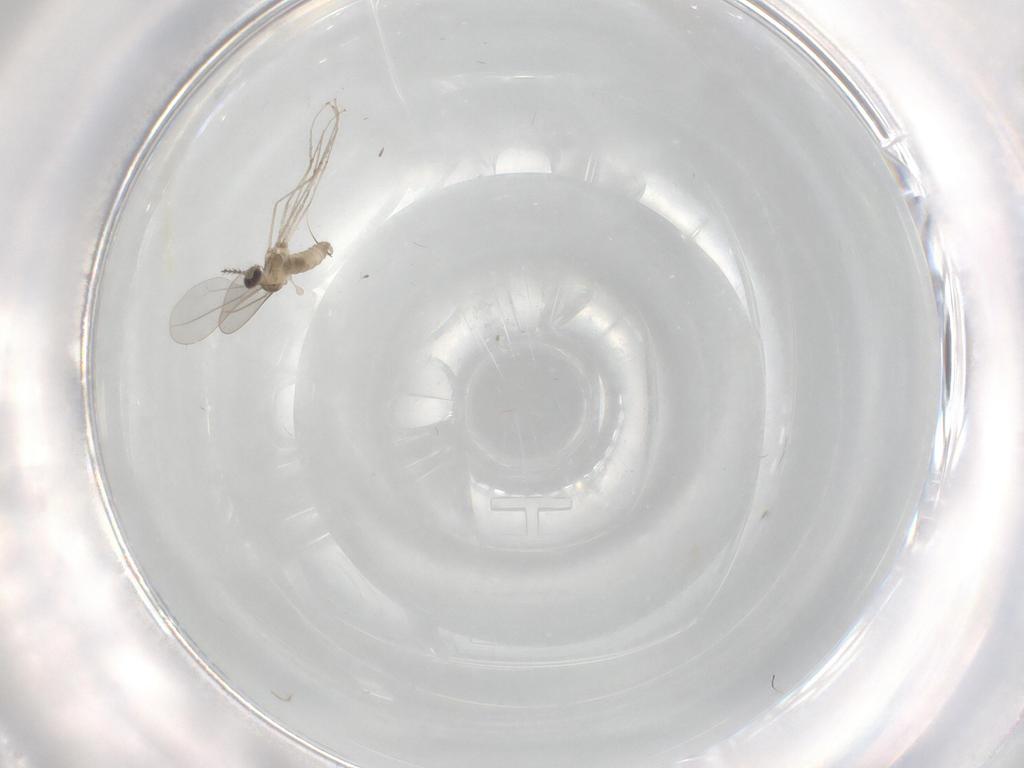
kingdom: Animalia
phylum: Arthropoda
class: Insecta
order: Diptera
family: Cecidomyiidae
